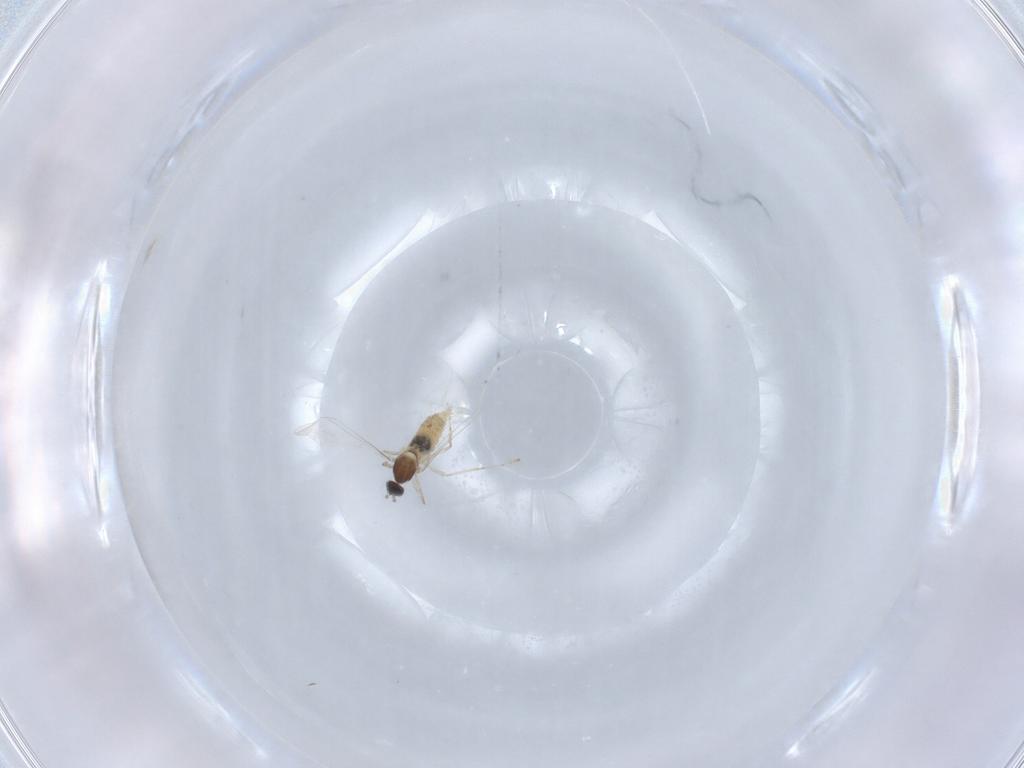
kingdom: Animalia
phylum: Arthropoda
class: Insecta
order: Diptera
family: Cecidomyiidae
